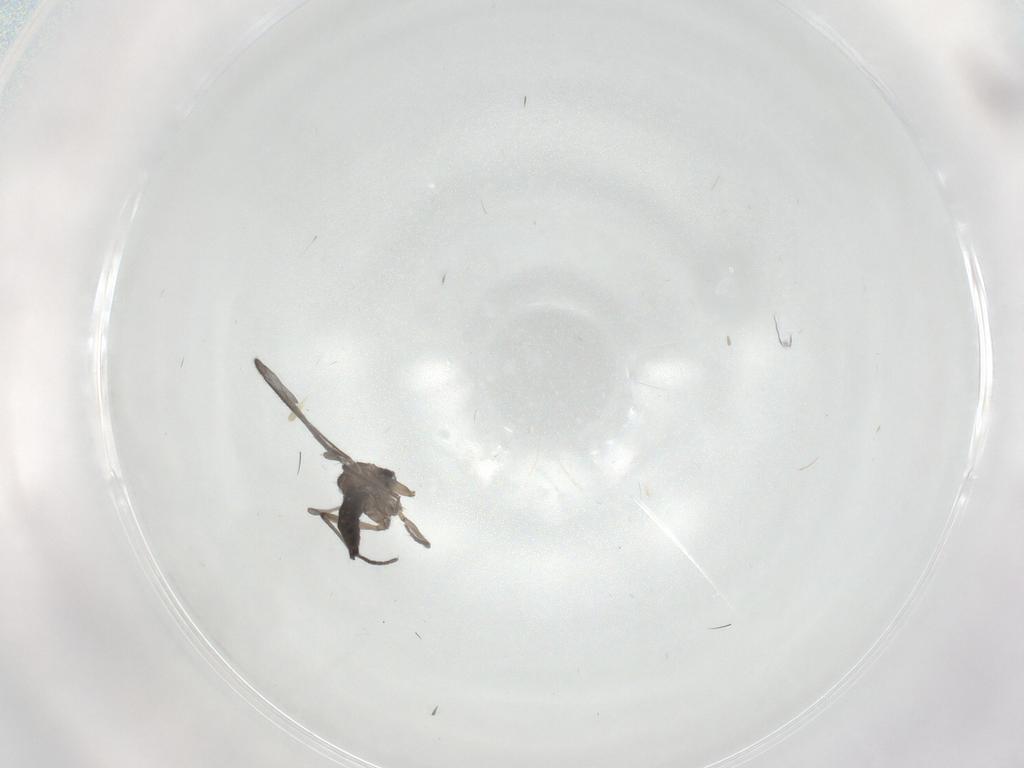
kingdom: Animalia
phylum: Arthropoda
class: Insecta
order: Diptera
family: Sciaridae
